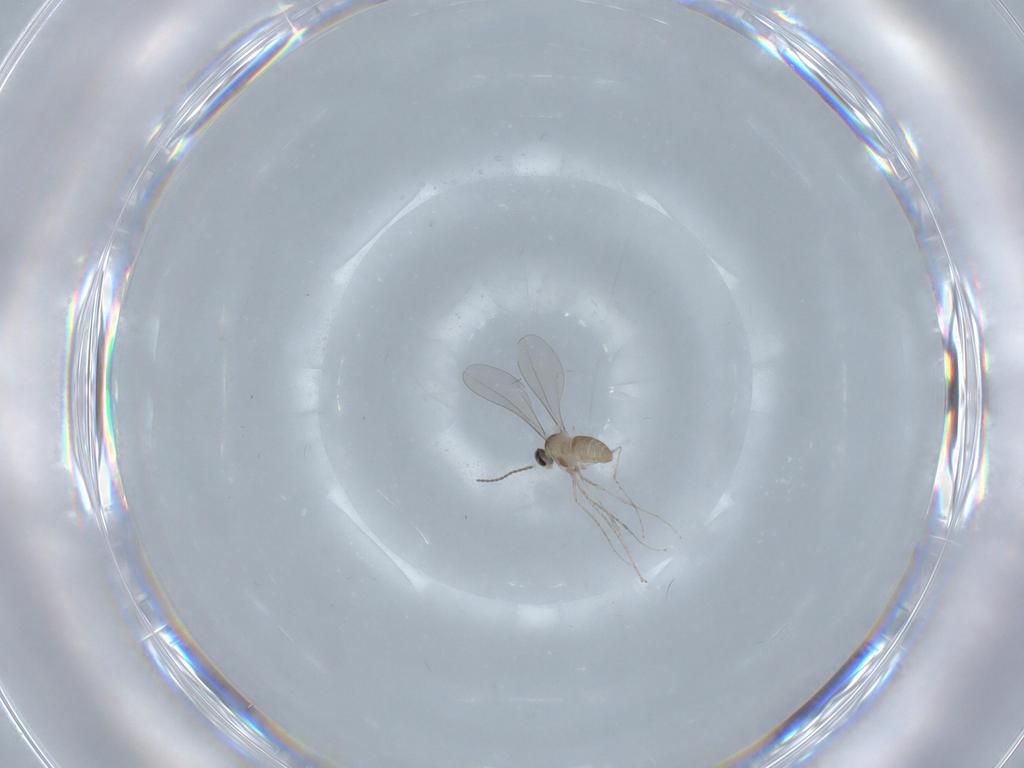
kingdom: Animalia
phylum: Arthropoda
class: Insecta
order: Diptera
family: Cecidomyiidae
